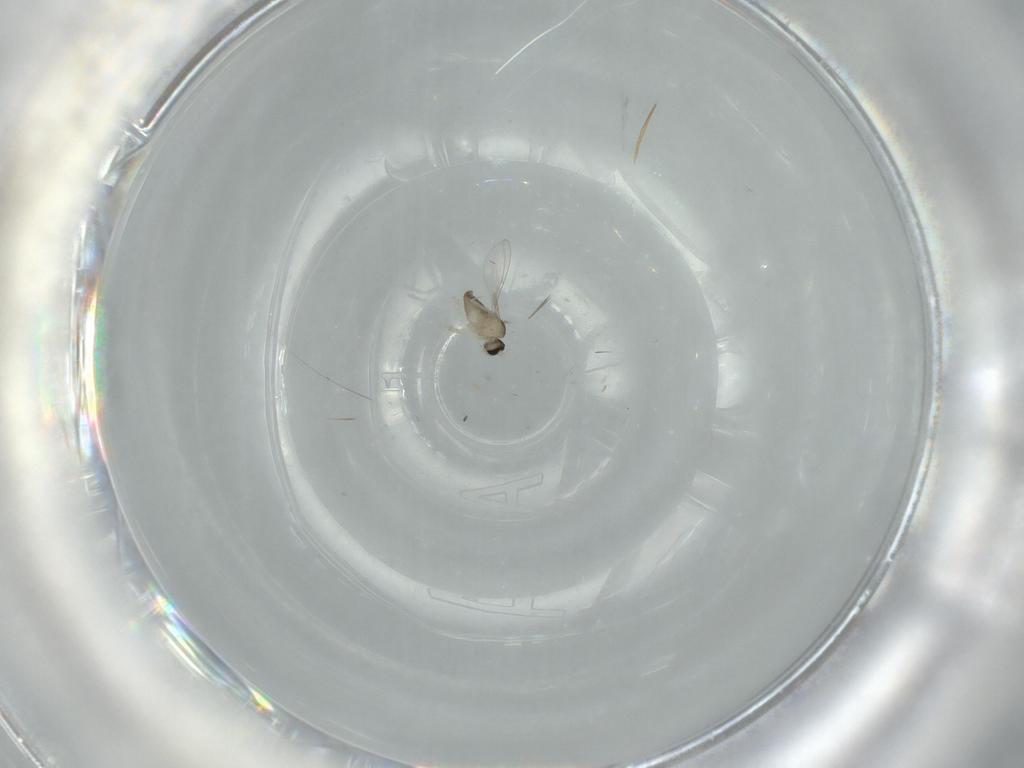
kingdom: Animalia
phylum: Arthropoda
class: Insecta
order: Diptera
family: Cecidomyiidae
